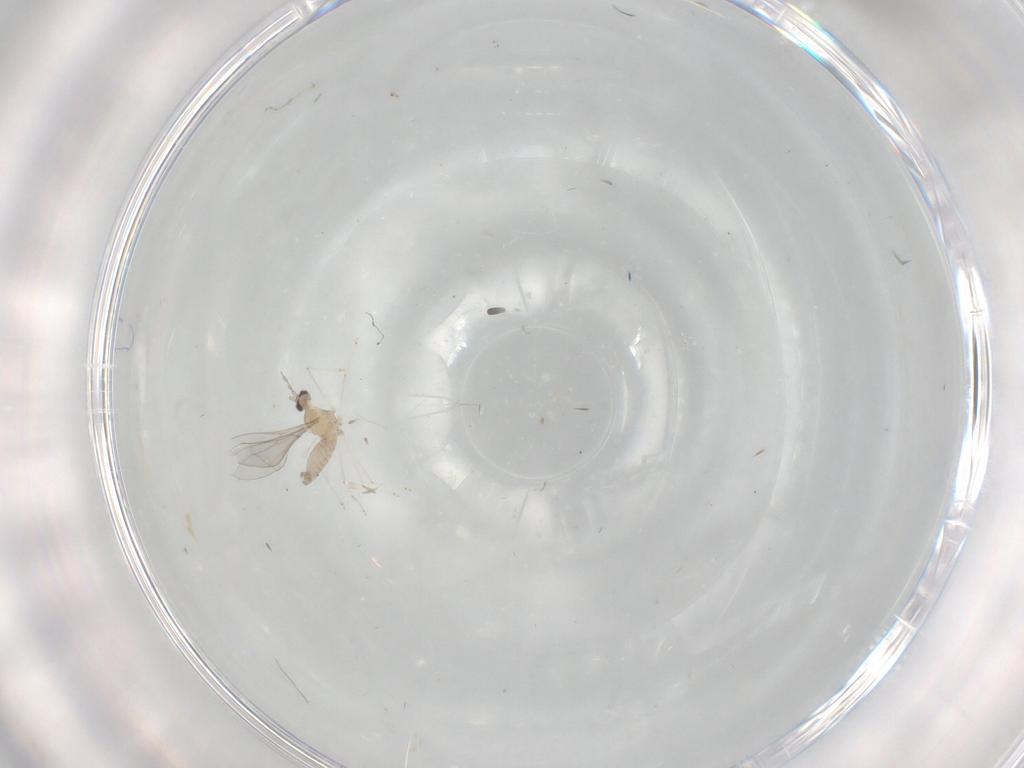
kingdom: Animalia
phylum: Arthropoda
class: Insecta
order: Diptera
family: Cecidomyiidae
